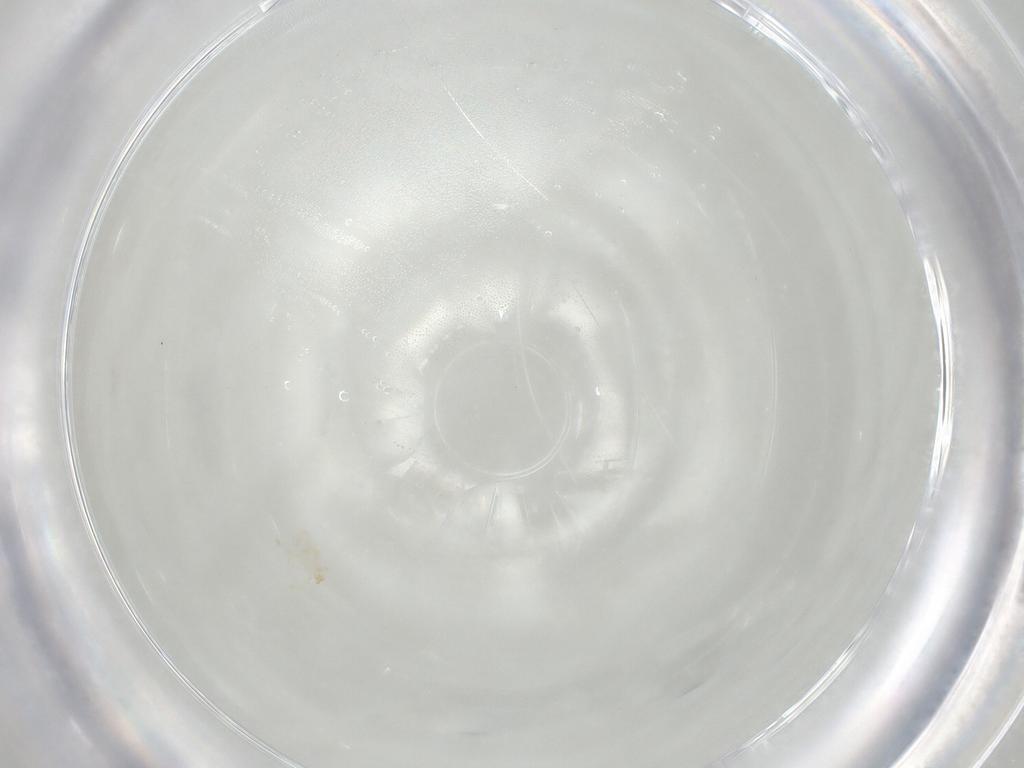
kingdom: Animalia
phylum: Arthropoda
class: Arachnida
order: Trombidiformes
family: Erythraeidae
